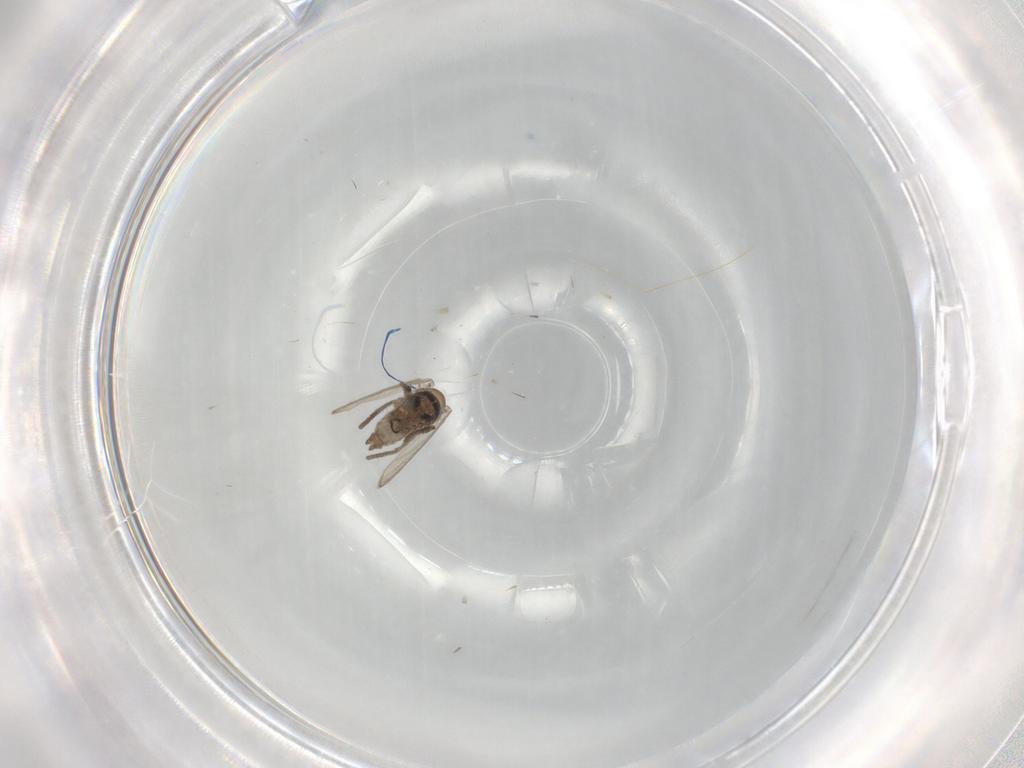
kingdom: Animalia
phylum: Arthropoda
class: Insecta
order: Diptera
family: Psychodidae
